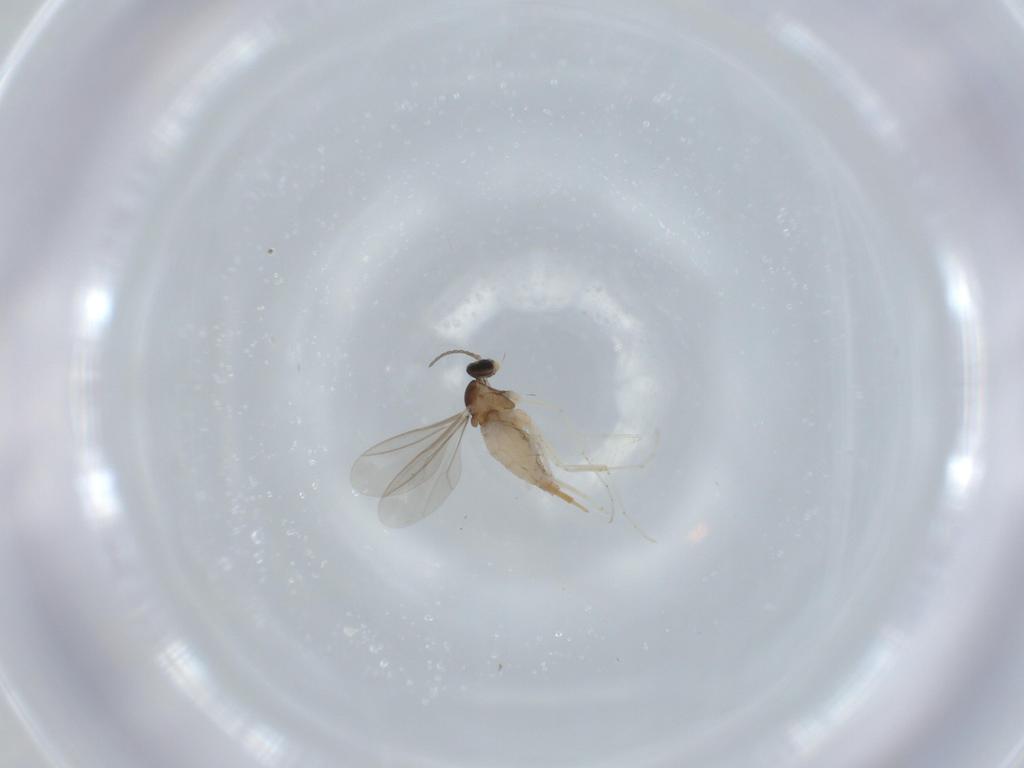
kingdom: Animalia
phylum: Arthropoda
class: Insecta
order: Diptera
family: Cecidomyiidae
